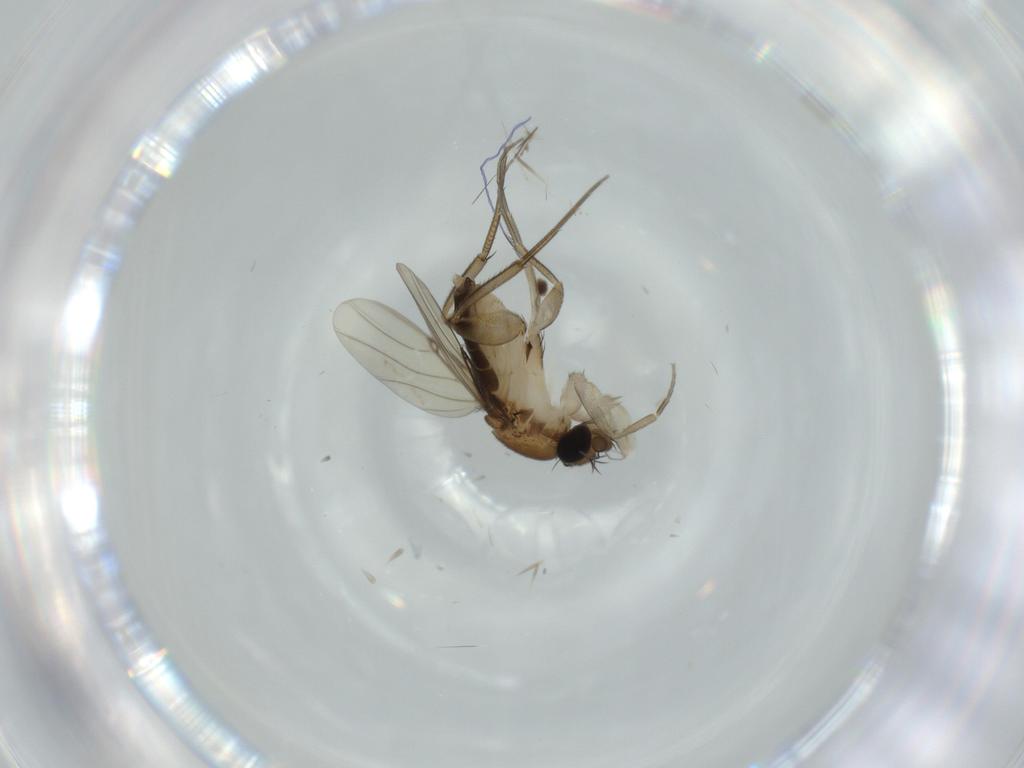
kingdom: Animalia
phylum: Arthropoda
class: Insecta
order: Diptera
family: Phoridae
